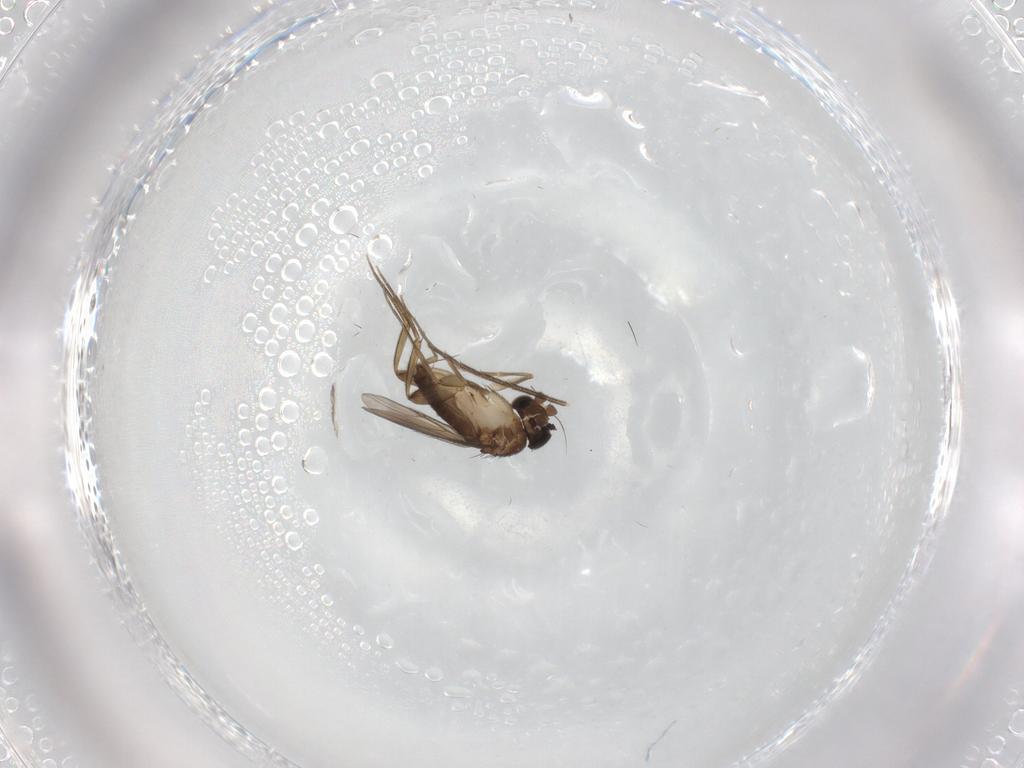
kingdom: Animalia
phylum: Arthropoda
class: Insecta
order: Diptera
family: Phoridae
